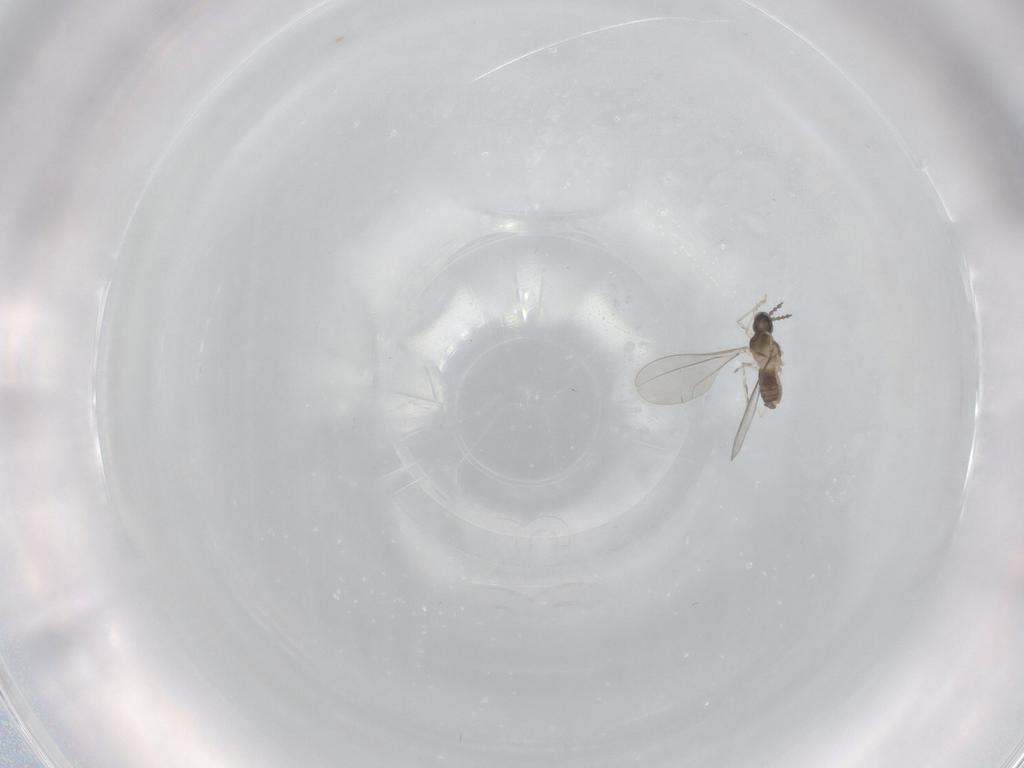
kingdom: Animalia
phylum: Arthropoda
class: Insecta
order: Diptera
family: Cecidomyiidae
